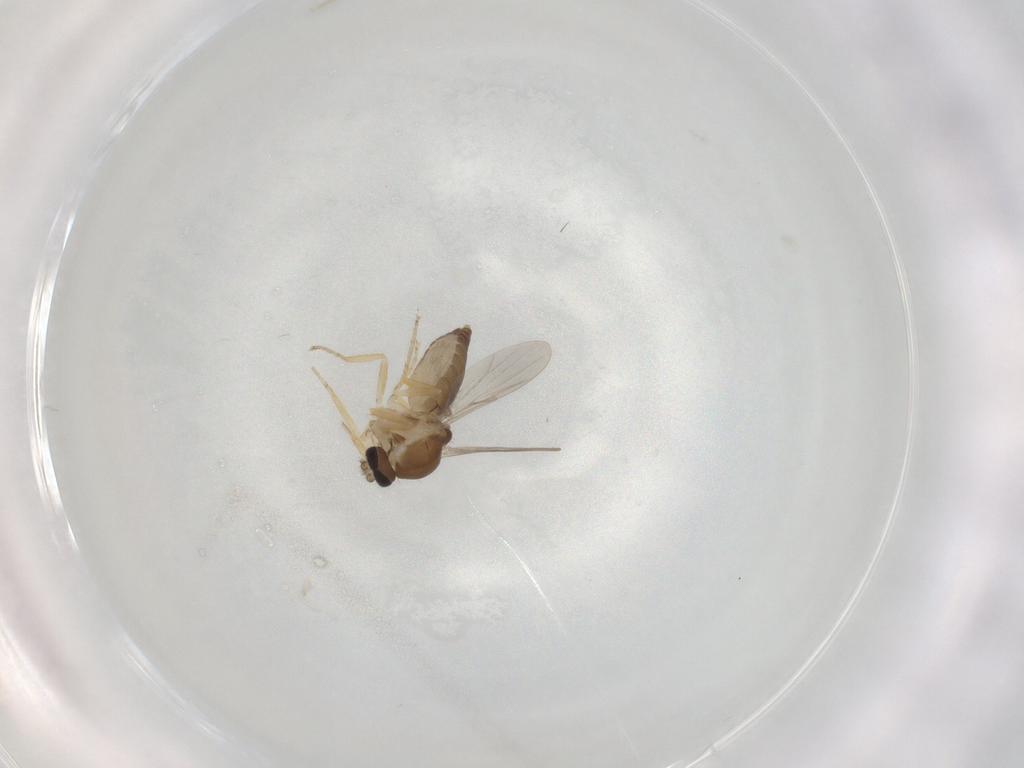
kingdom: Animalia
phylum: Arthropoda
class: Insecta
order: Diptera
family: Ceratopogonidae
